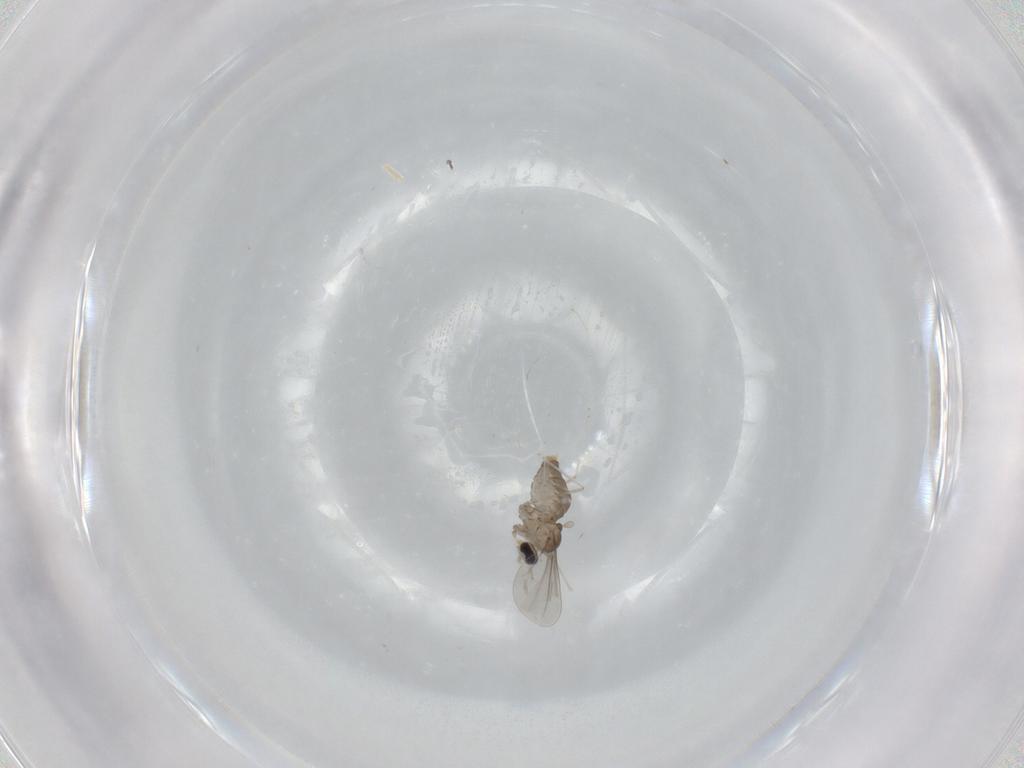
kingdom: Animalia
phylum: Arthropoda
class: Insecta
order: Diptera
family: Cecidomyiidae
